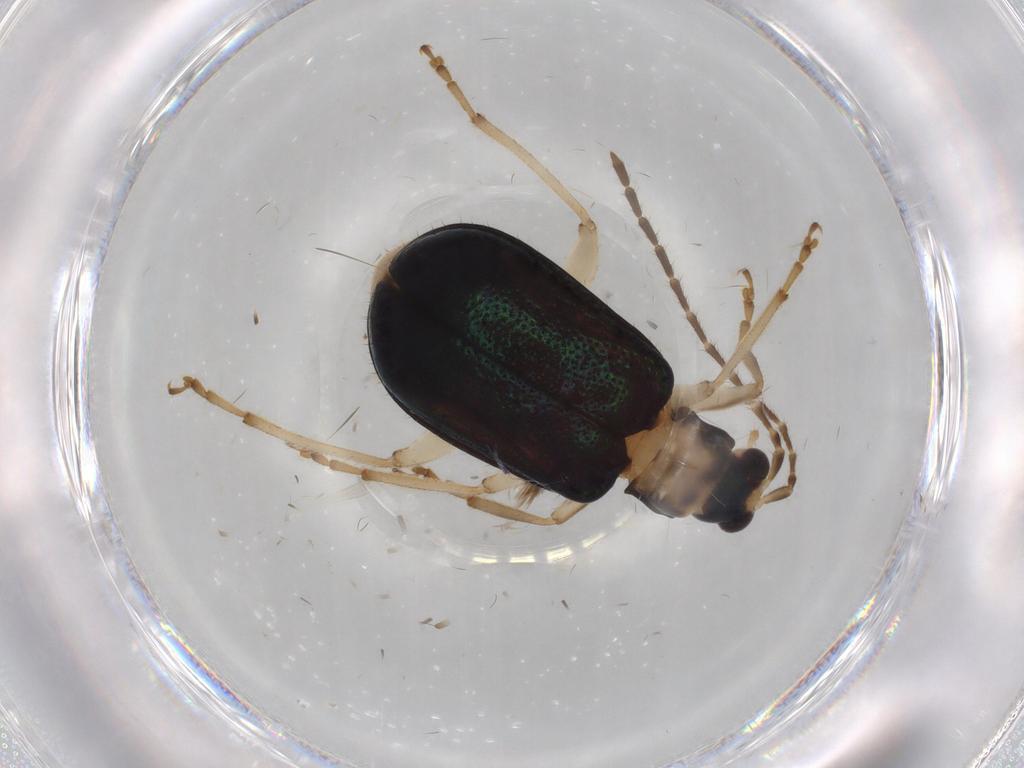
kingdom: Animalia
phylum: Arthropoda
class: Insecta
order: Coleoptera
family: Chrysomelidae
